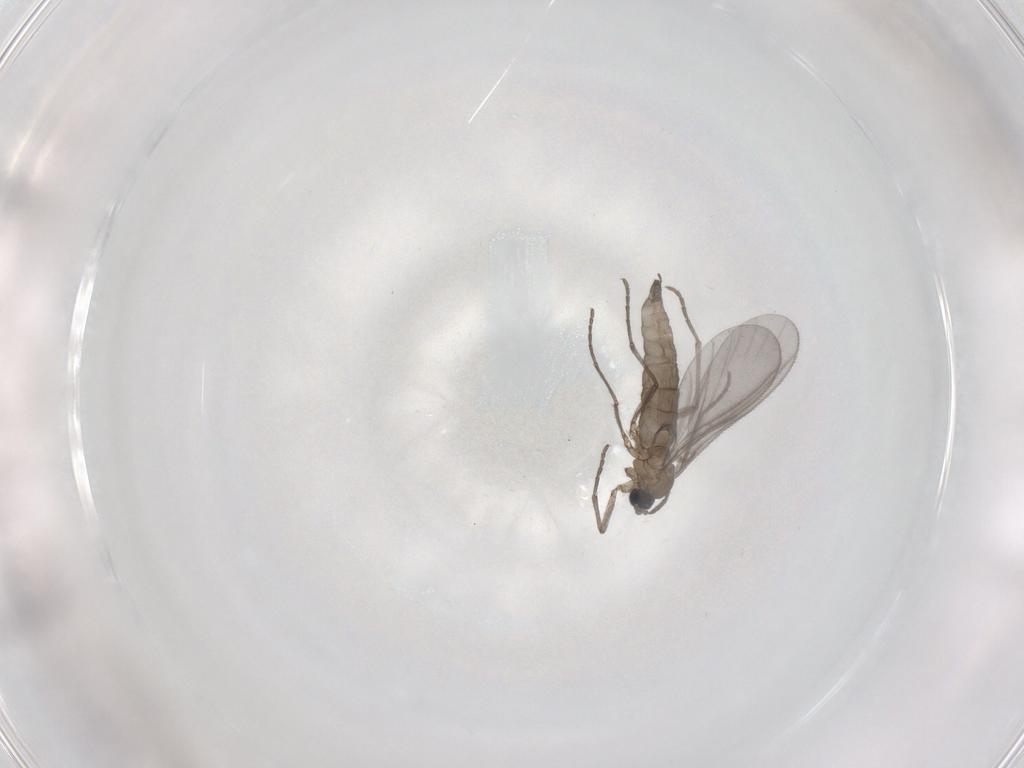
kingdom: Animalia
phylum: Arthropoda
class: Insecta
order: Diptera
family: Sciaridae
